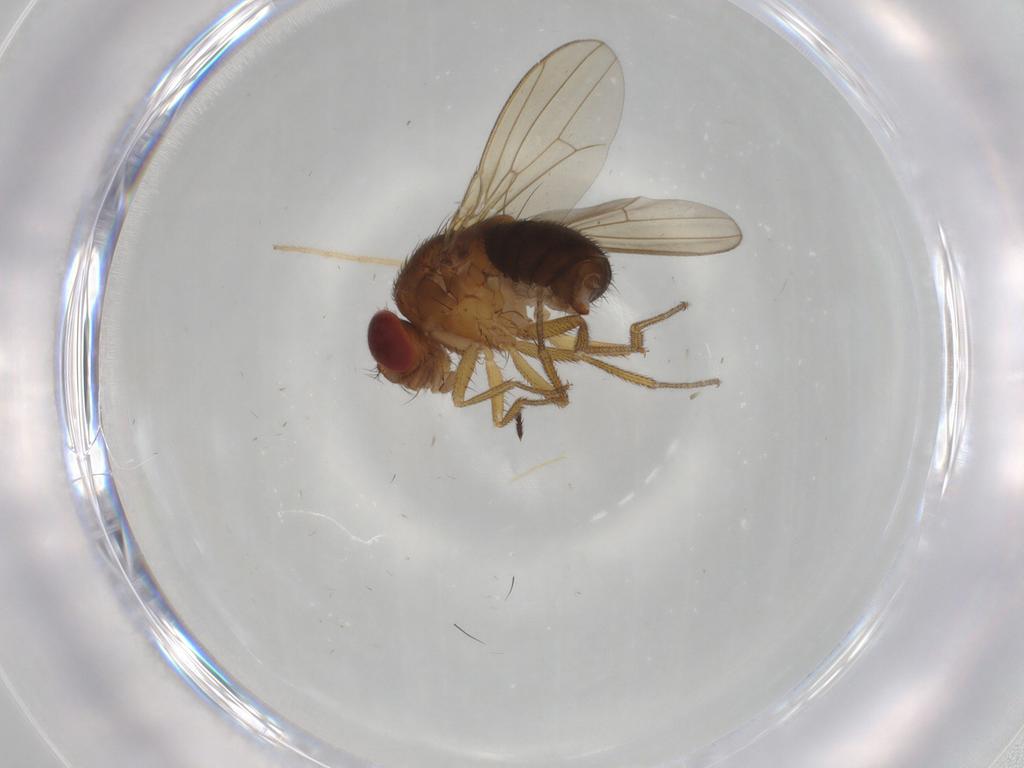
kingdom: Animalia
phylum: Arthropoda
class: Insecta
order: Diptera
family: Drosophilidae
